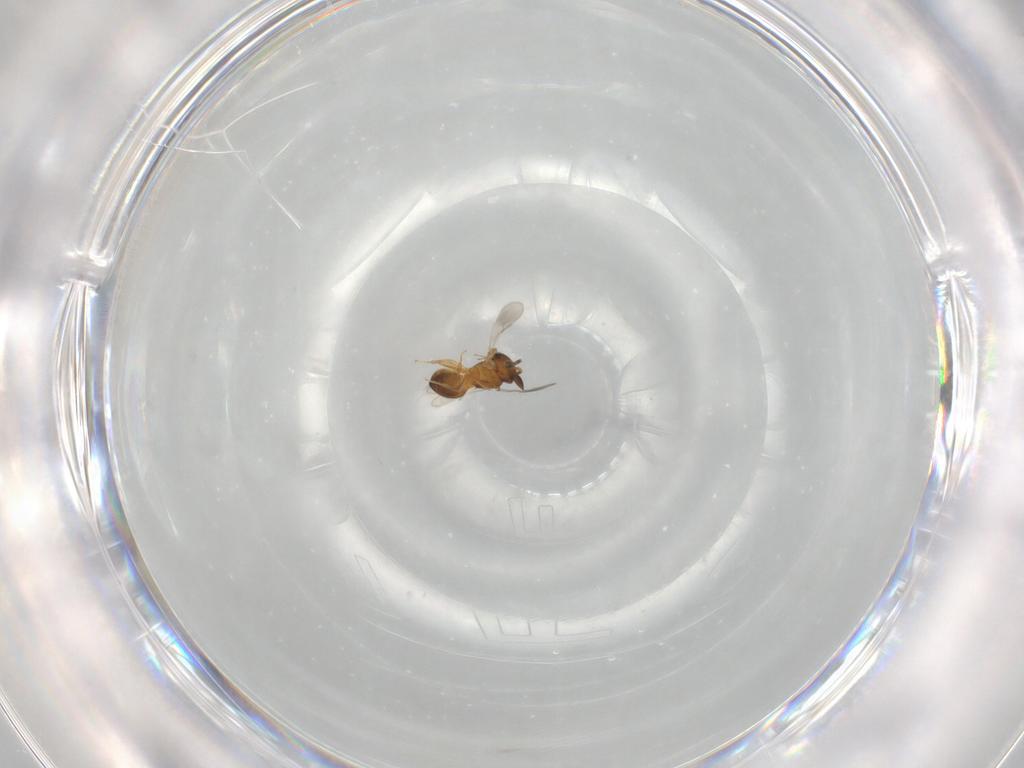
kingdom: Animalia
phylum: Arthropoda
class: Insecta
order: Hymenoptera
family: Scelionidae
